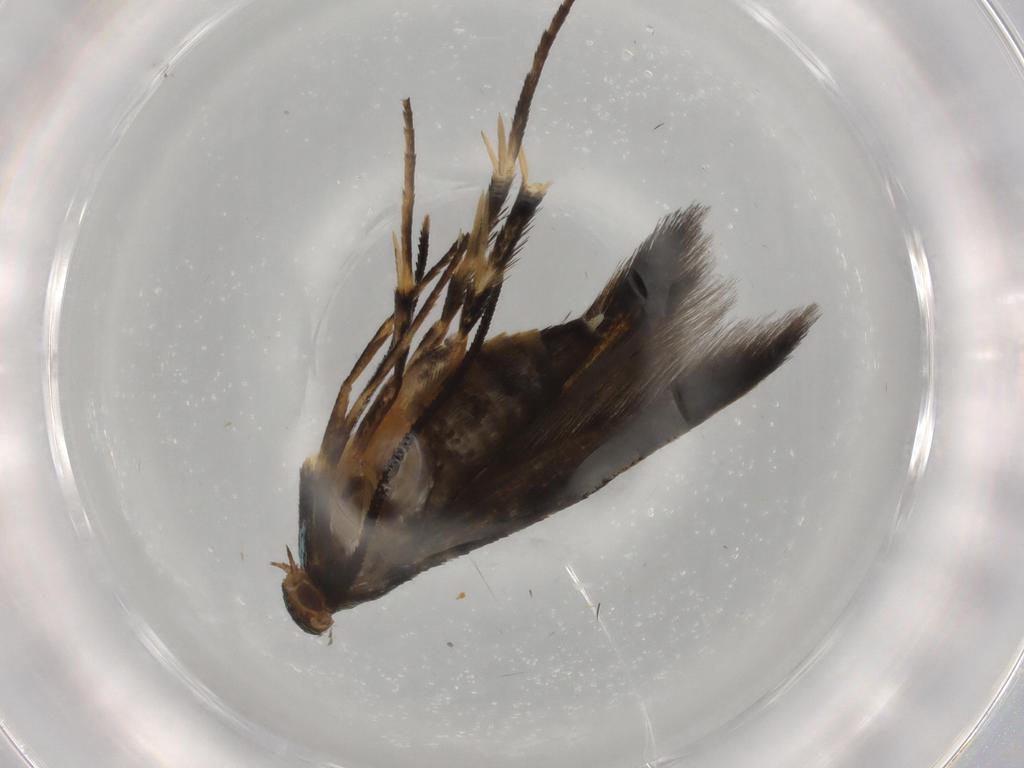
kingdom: Animalia
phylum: Arthropoda
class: Insecta
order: Lepidoptera
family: Heliodinidae
